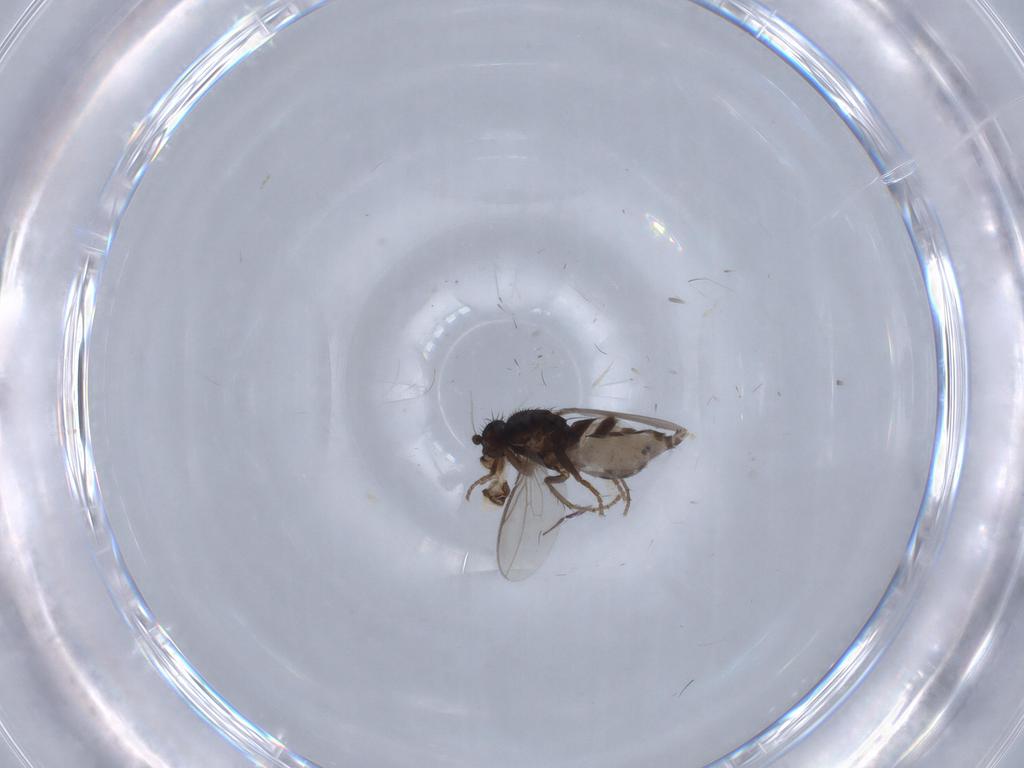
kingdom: Animalia
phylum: Arthropoda
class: Insecta
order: Diptera
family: Sphaeroceridae
